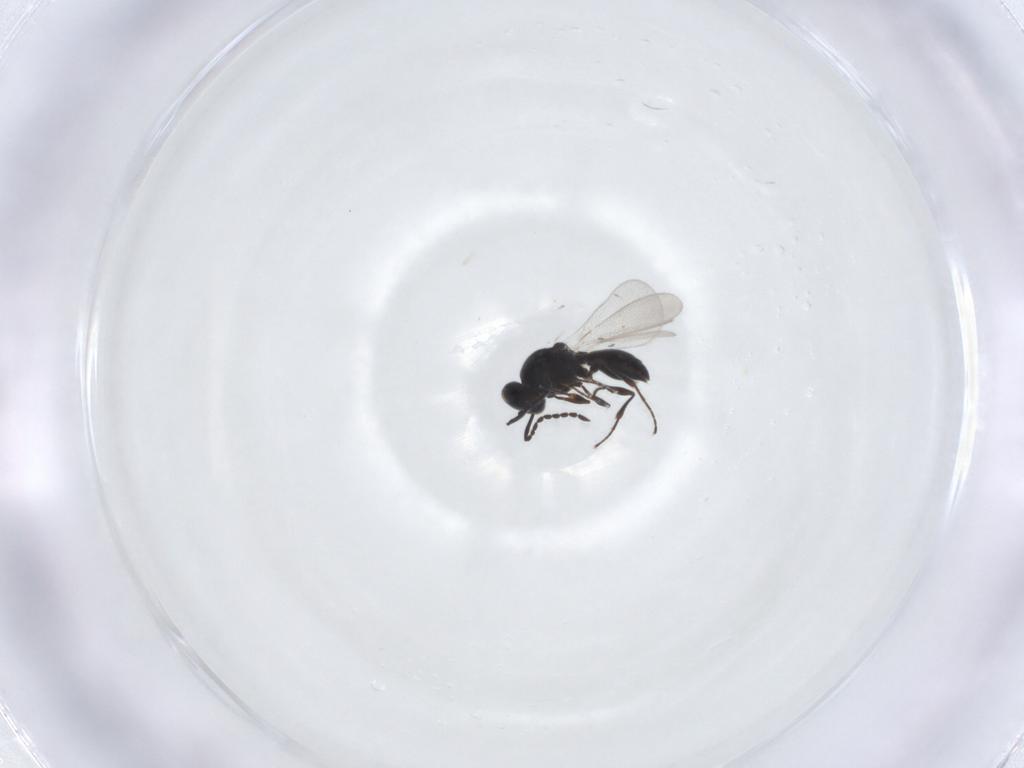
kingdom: Animalia
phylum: Arthropoda
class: Insecta
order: Hymenoptera
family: Platygastridae
